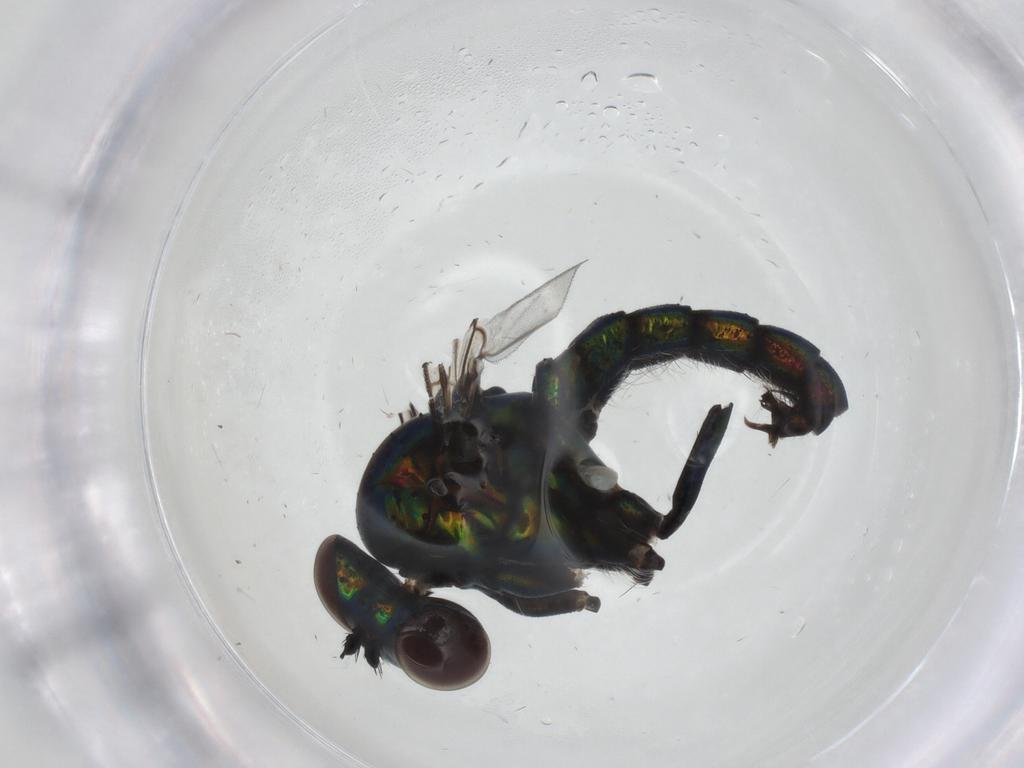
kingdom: Animalia
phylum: Arthropoda
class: Insecta
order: Diptera
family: Dolichopodidae
